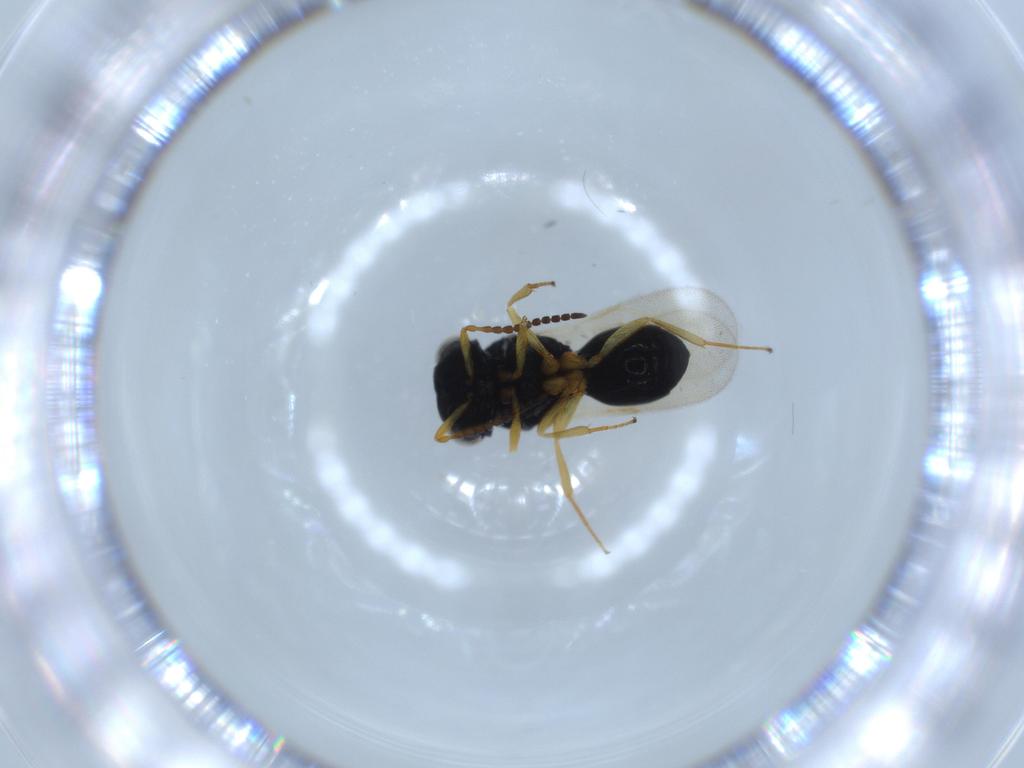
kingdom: Animalia
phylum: Arthropoda
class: Insecta
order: Hymenoptera
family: Scelionidae
